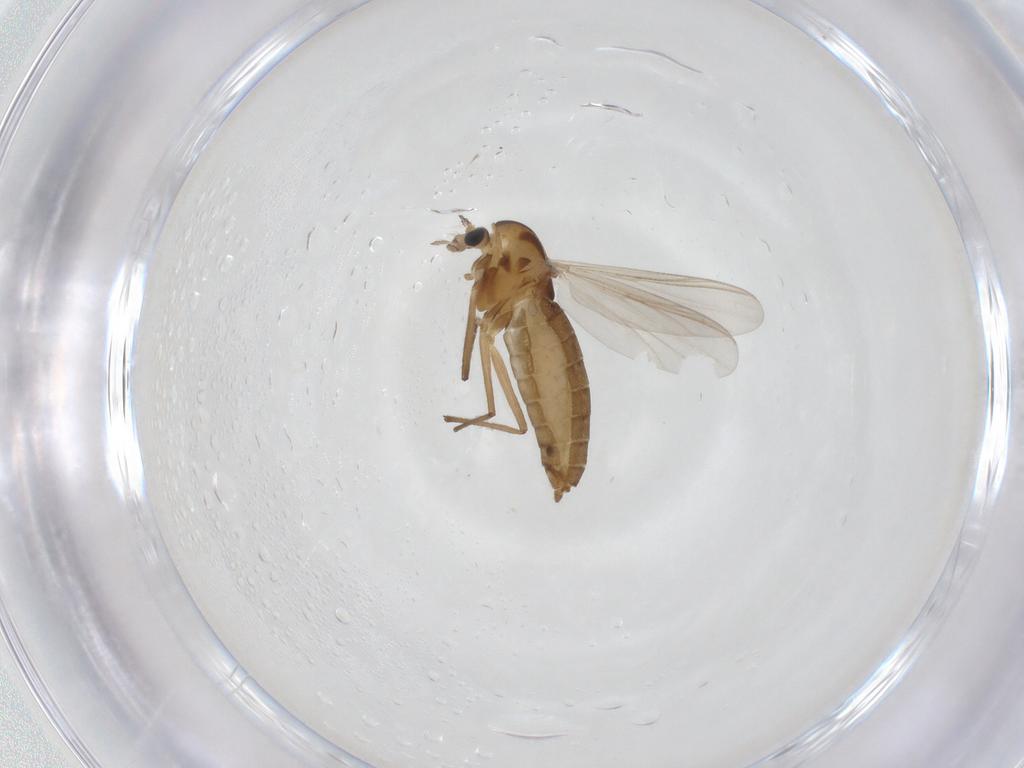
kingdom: Animalia
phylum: Arthropoda
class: Insecta
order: Diptera
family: Chironomidae
